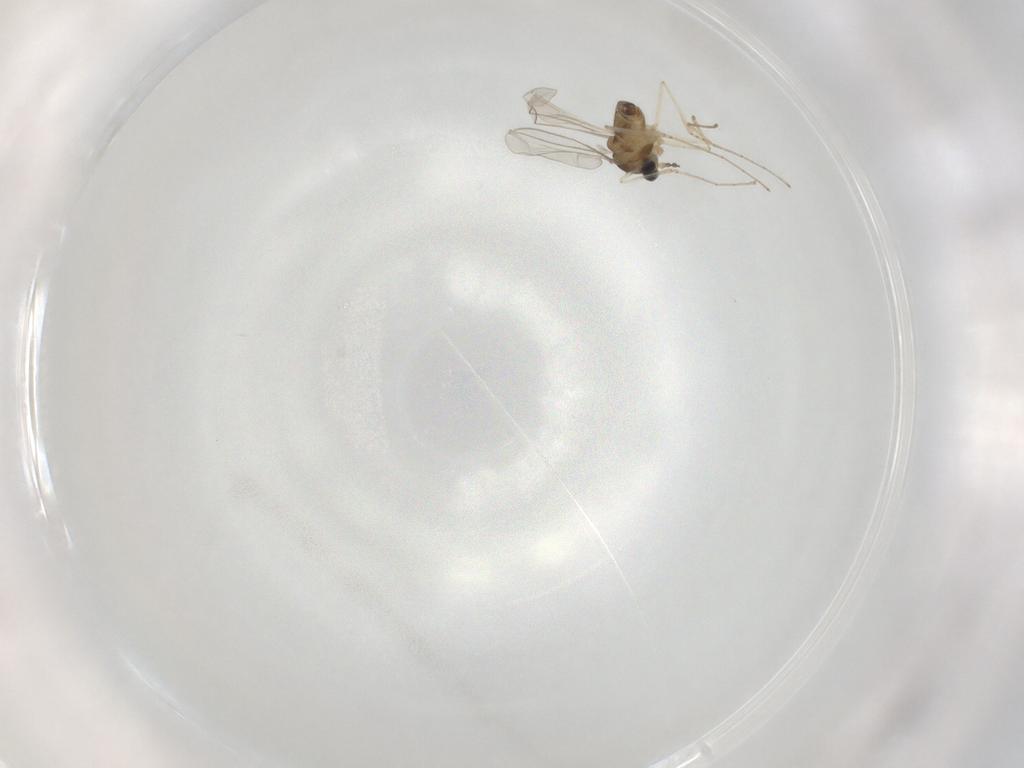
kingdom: Animalia
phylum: Arthropoda
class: Insecta
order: Diptera
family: Cecidomyiidae
